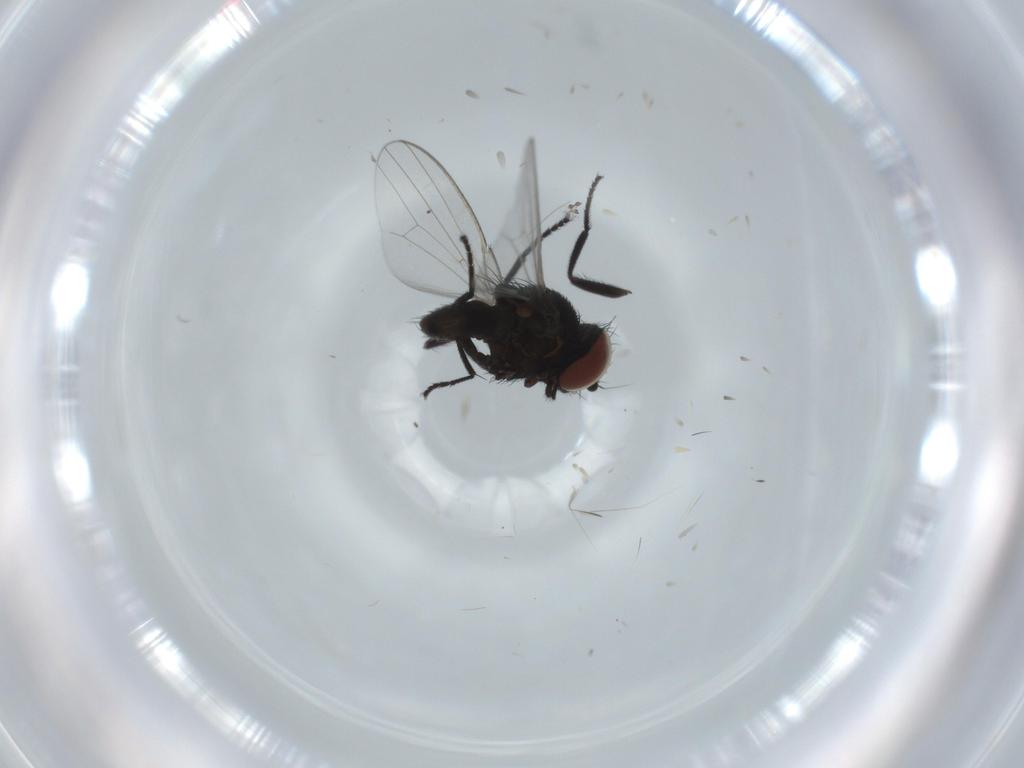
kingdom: Animalia
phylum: Arthropoda
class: Insecta
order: Diptera
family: Milichiidae
